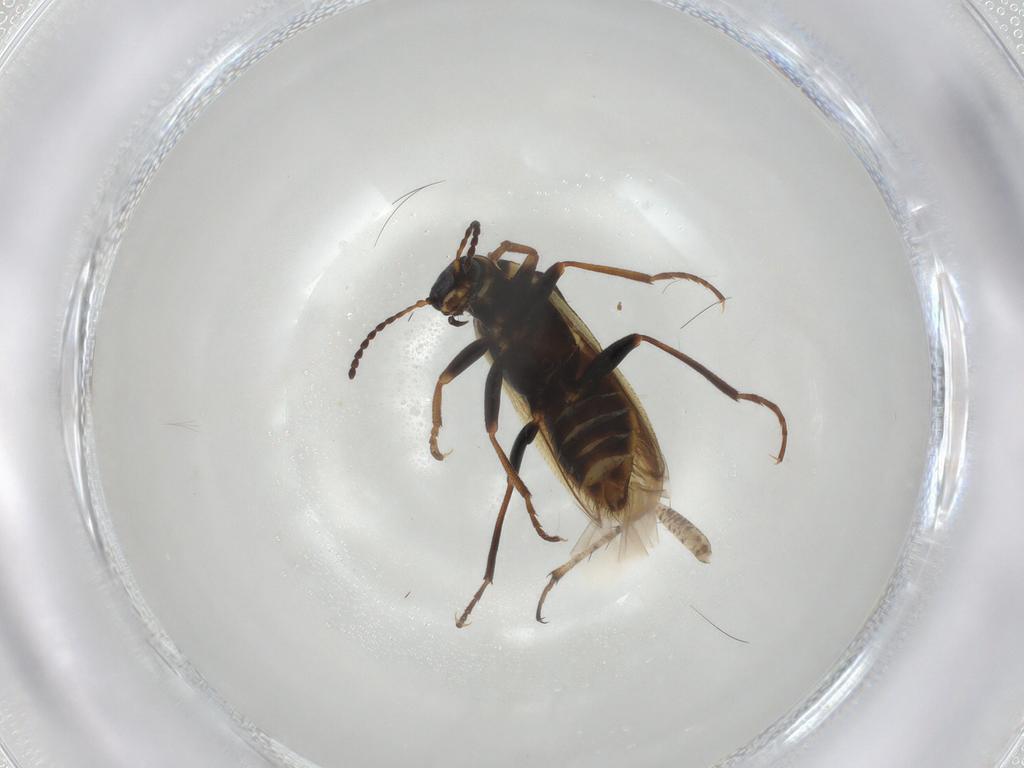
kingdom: Animalia
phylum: Arthropoda
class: Insecta
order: Coleoptera
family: Melyridae
